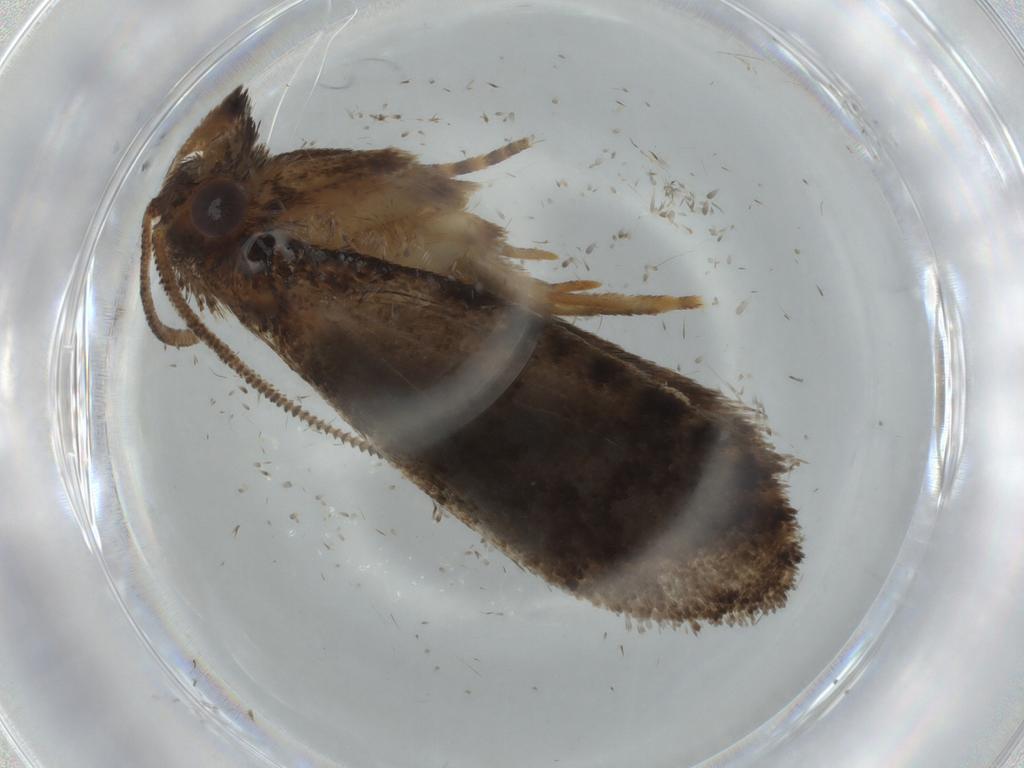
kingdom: Animalia
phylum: Arthropoda
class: Insecta
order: Lepidoptera
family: Tineidae
